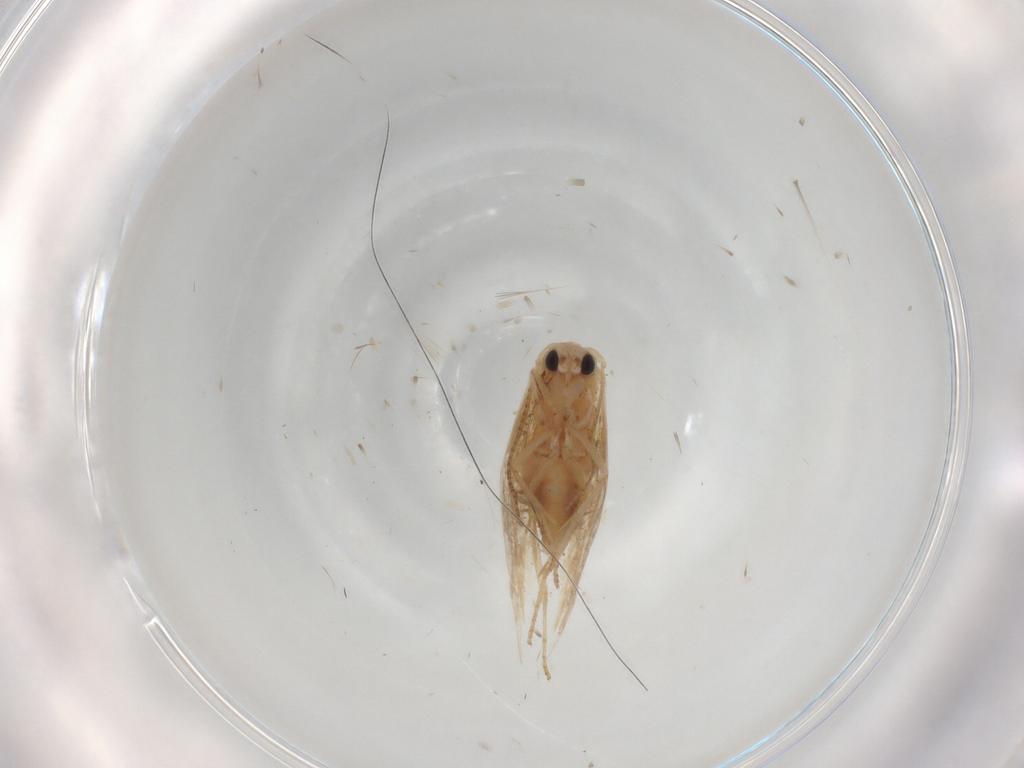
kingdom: Animalia
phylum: Arthropoda
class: Insecta
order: Lepidoptera
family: Bucculatricidae
